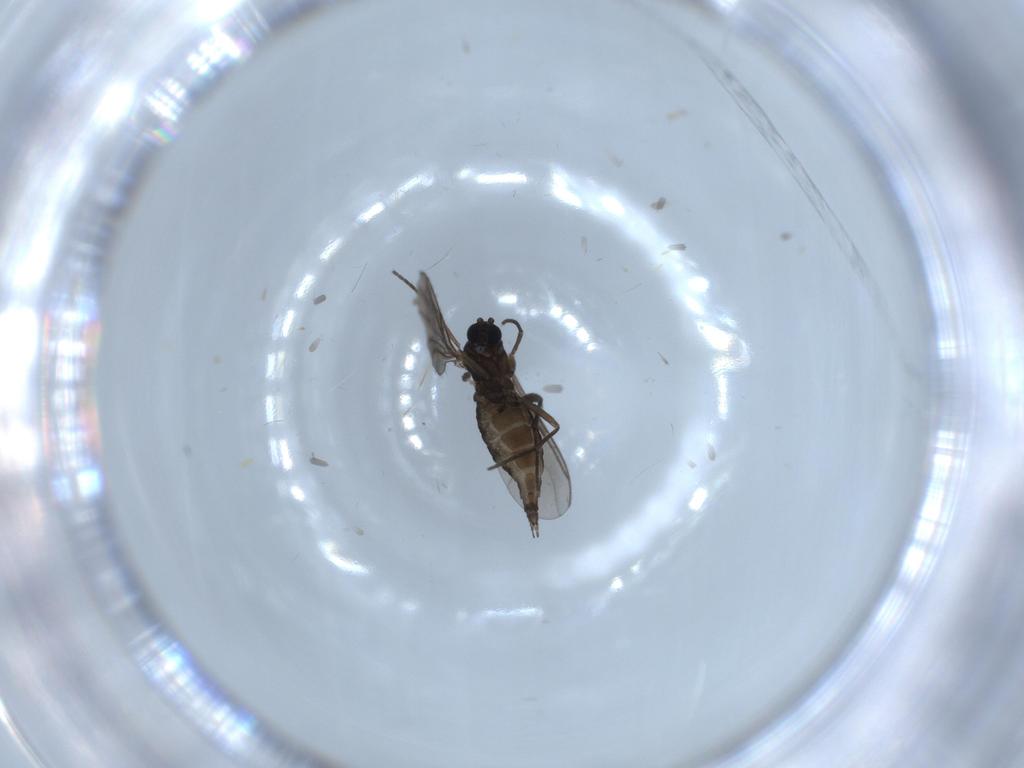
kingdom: Animalia
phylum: Arthropoda
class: Insecta
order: Diptera
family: Sciaridae
